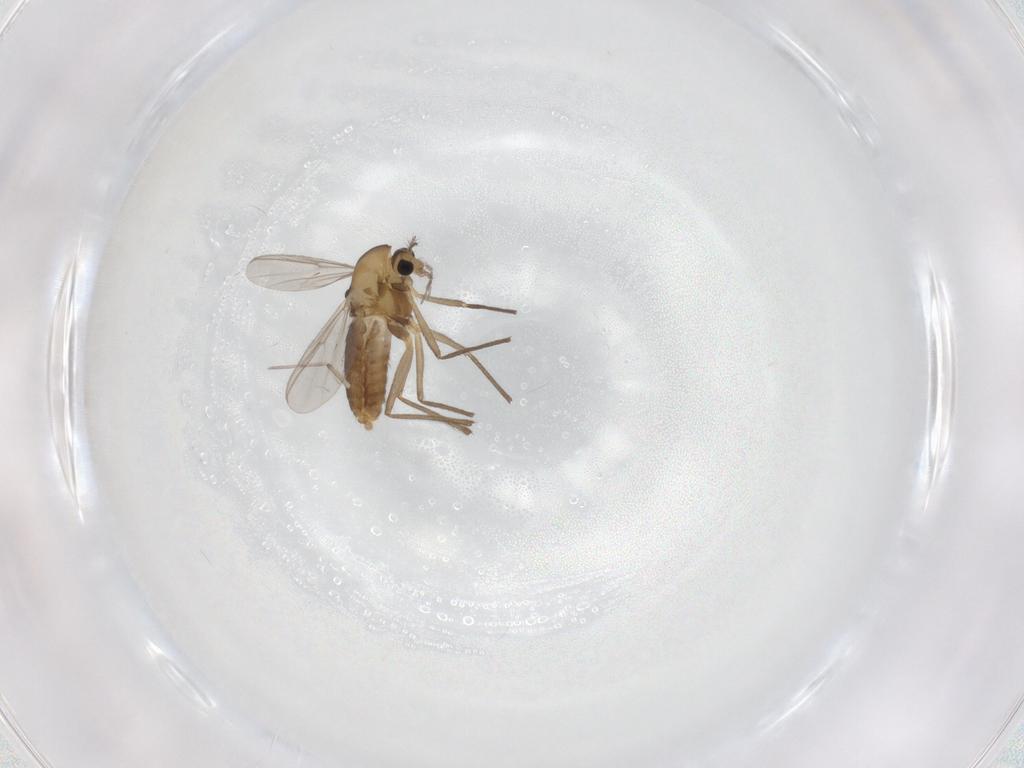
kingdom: Animalia
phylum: Arthropoda
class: Insecta
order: Diptera
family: Chironomidae
